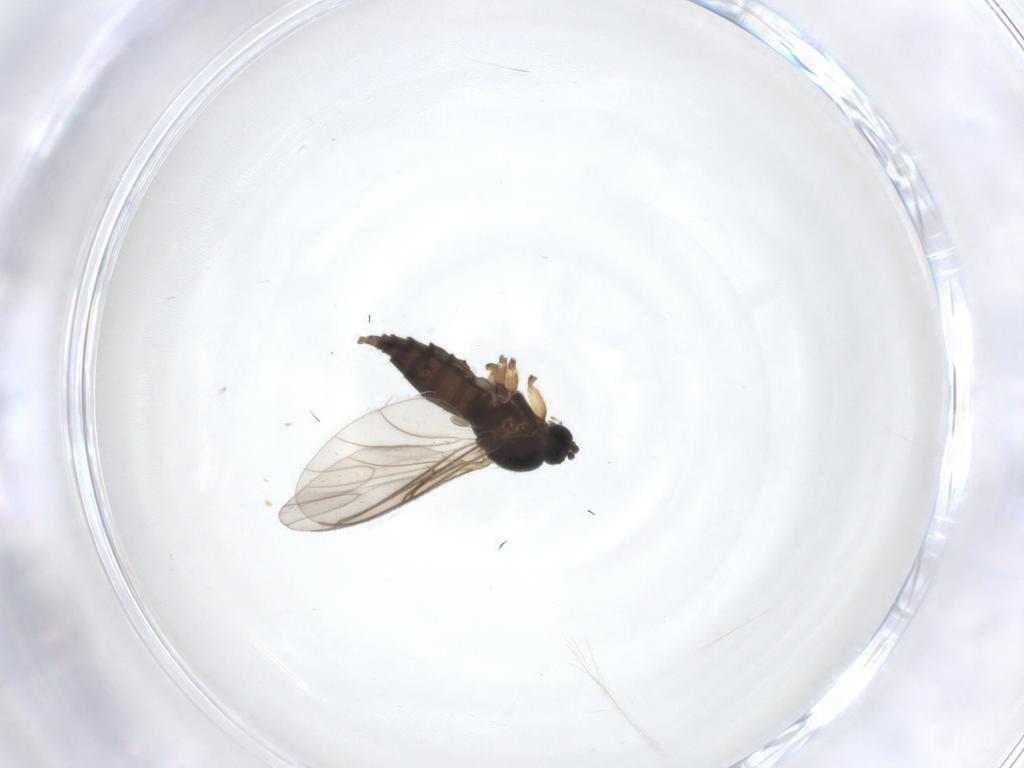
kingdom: Animalia
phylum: Arthropoda
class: Insecta
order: Diptera
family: Sciaridae
